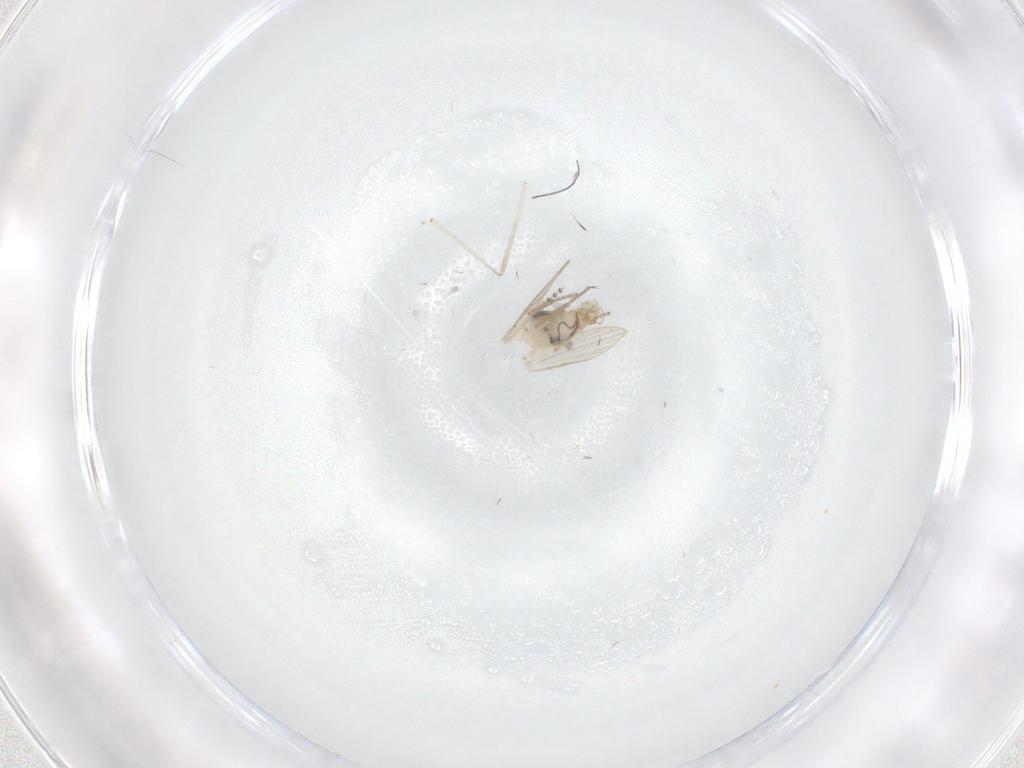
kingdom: Animalia
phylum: Arthropoda
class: Insecta
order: Diptera
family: Psychodidae
